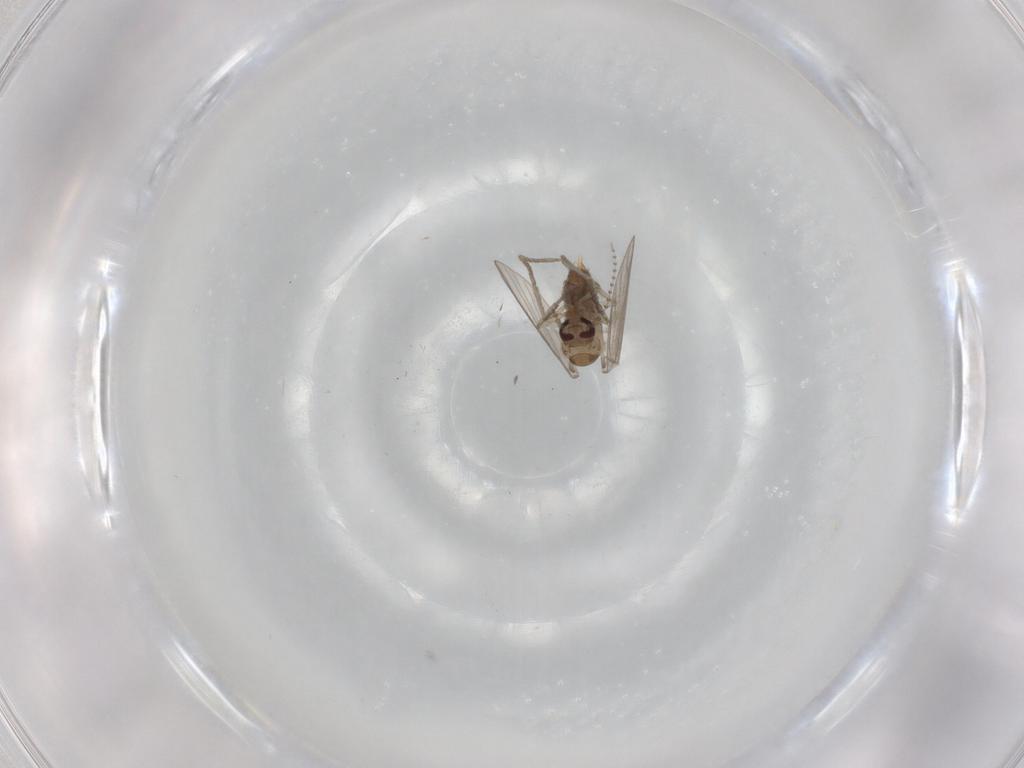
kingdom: Animalia
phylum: Arthropoda
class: Insecta
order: Diptera
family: Psychodidae
